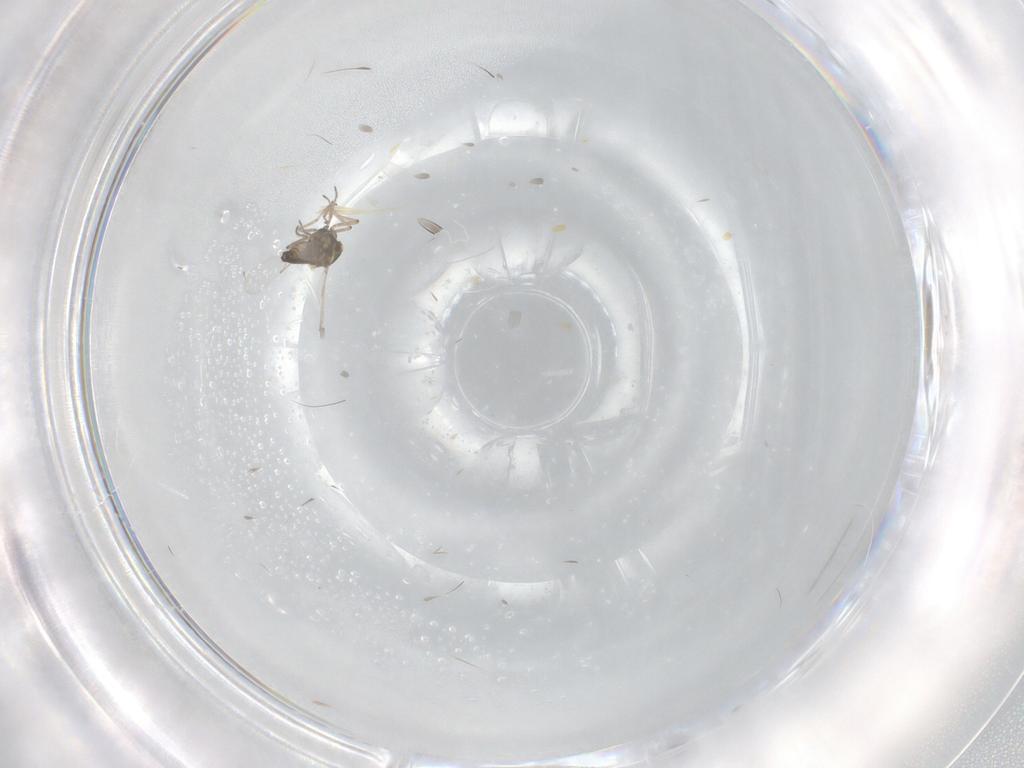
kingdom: Animalia
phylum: Arthropoda
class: Insecta
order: Diptera
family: Ceratopogonidae
